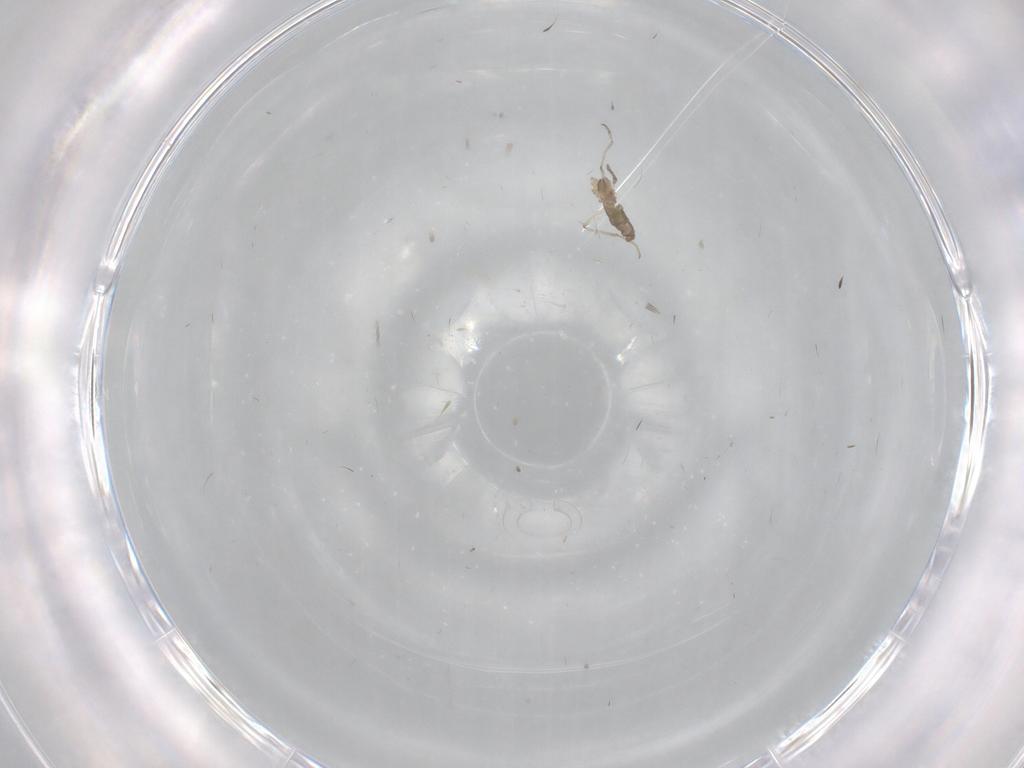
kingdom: Animalia
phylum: Arthropoda
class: Insecta
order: Diptera
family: Cecidomyiidae
